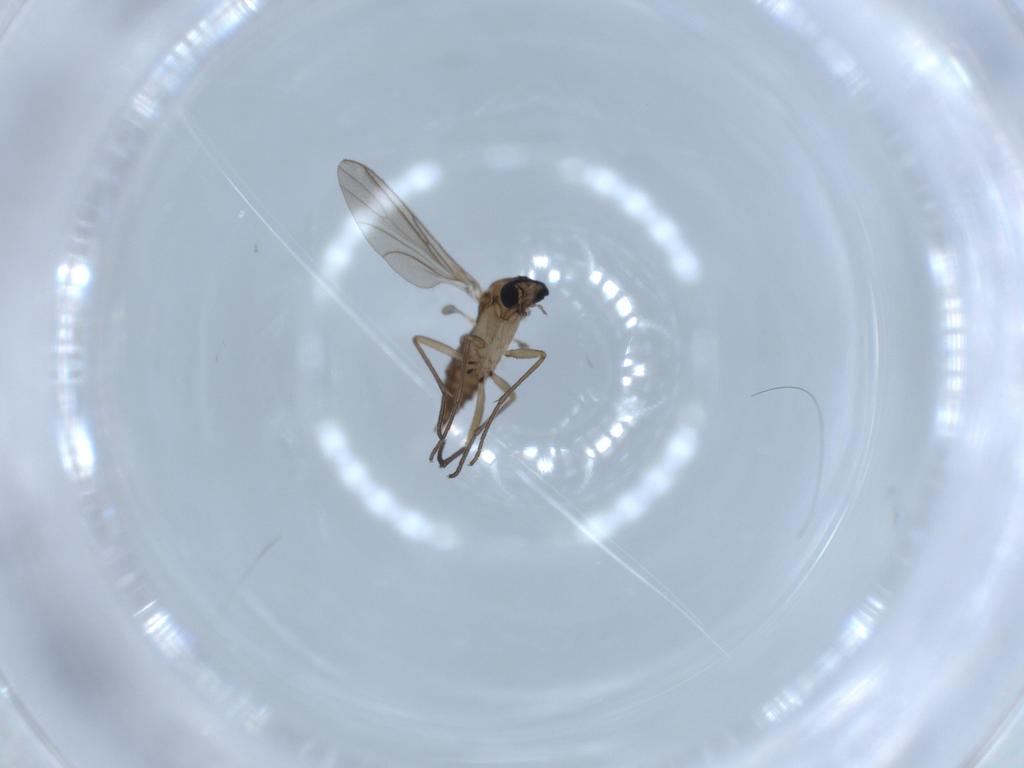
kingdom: Animalia
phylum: Arthropoda
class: Insecta
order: Diptera
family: Sciaridae
